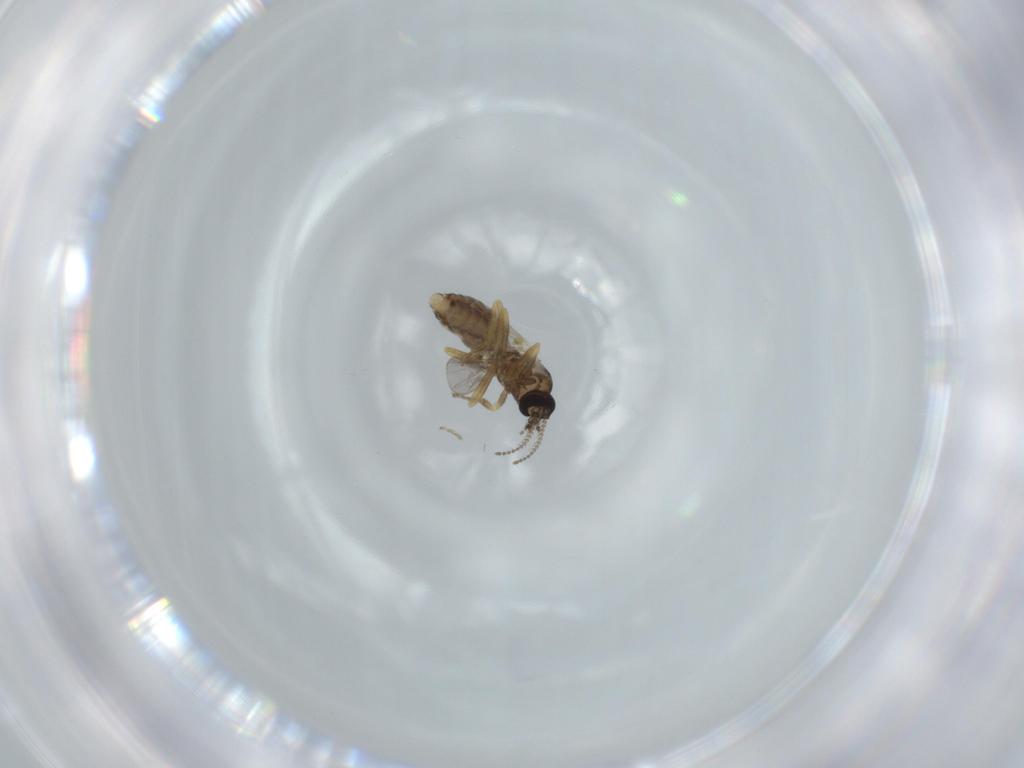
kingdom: Animalia
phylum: Arthropoda
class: Insecta
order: Diptera
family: Ceratopogonidae
